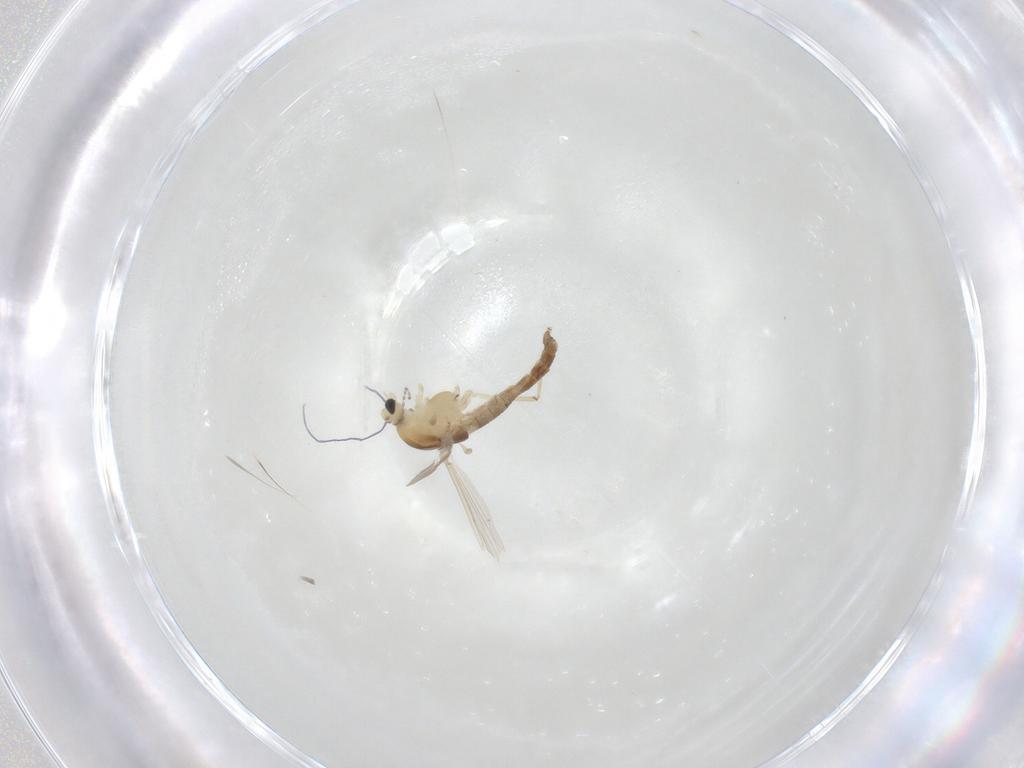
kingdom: Animalia
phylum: Arthropoda
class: Insecta
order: Diptera
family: Chironomidae
